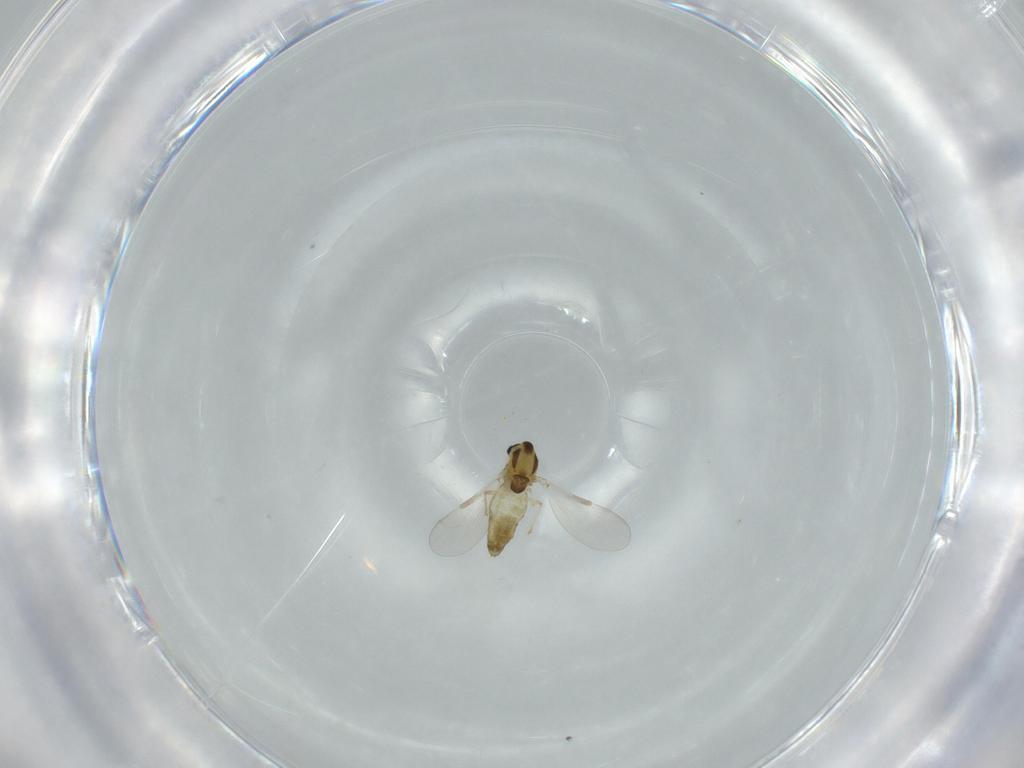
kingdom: Animalia
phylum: Arthropoda
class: Insecta
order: Diptera
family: Chironomidae
